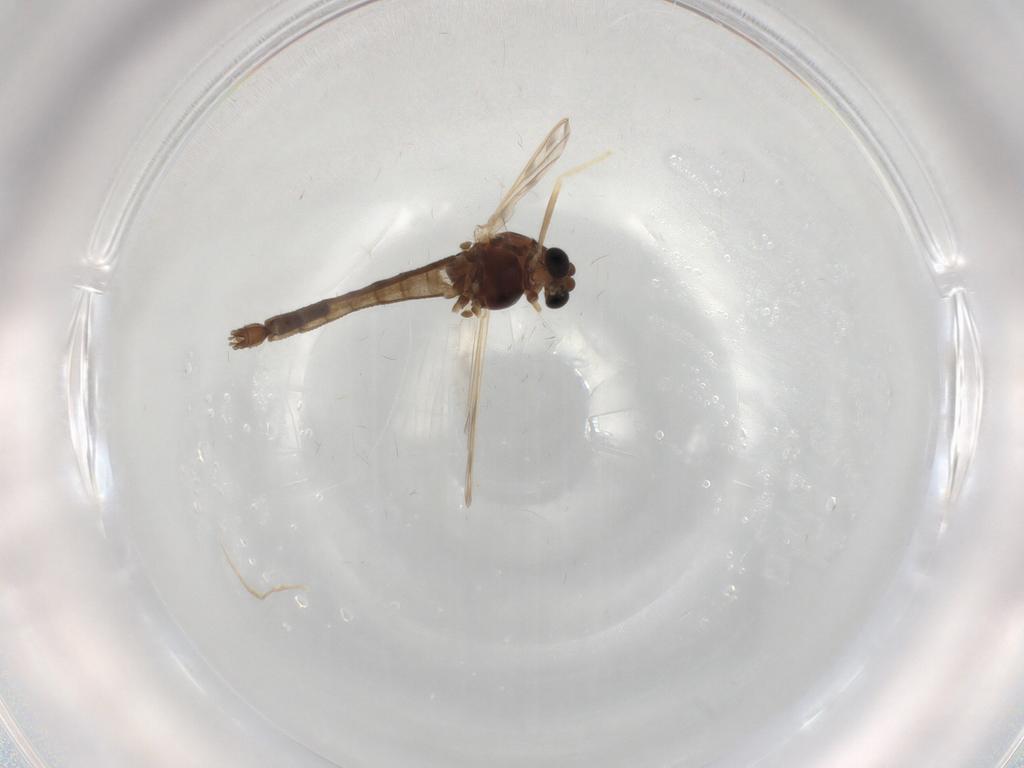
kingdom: Animalia
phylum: Arthropoda
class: Insecta
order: Diptera
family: Chironomidae
